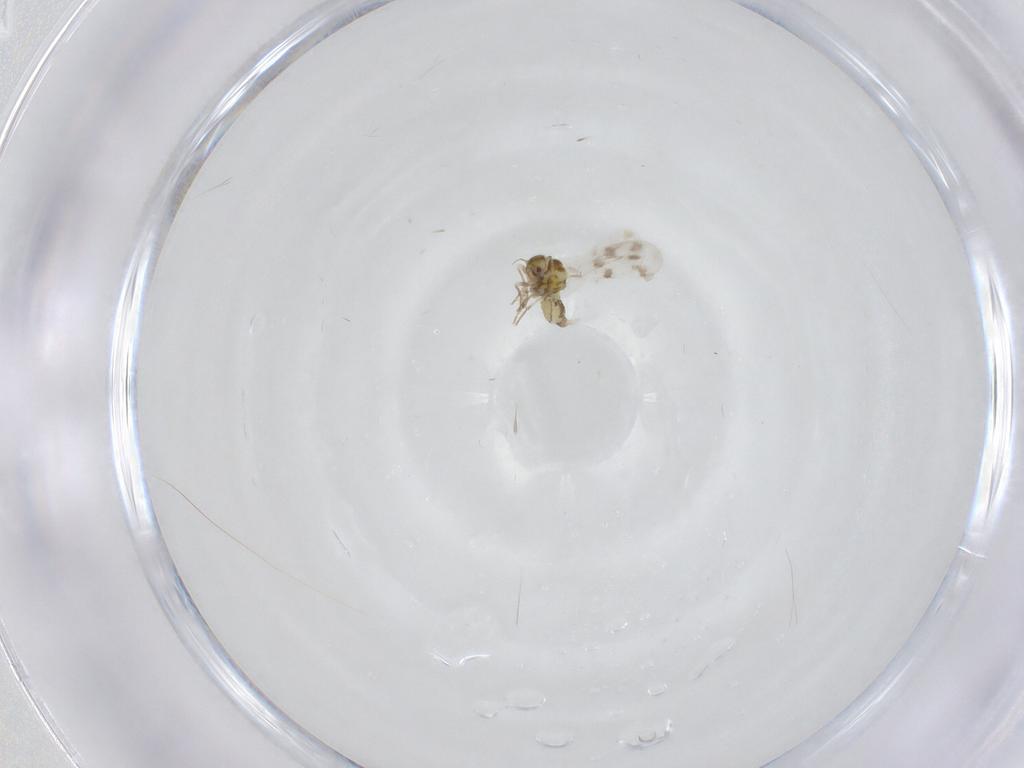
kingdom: Animalia
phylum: Arthropoda
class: Insecta
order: Hemiptera
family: Aleyrodidae
